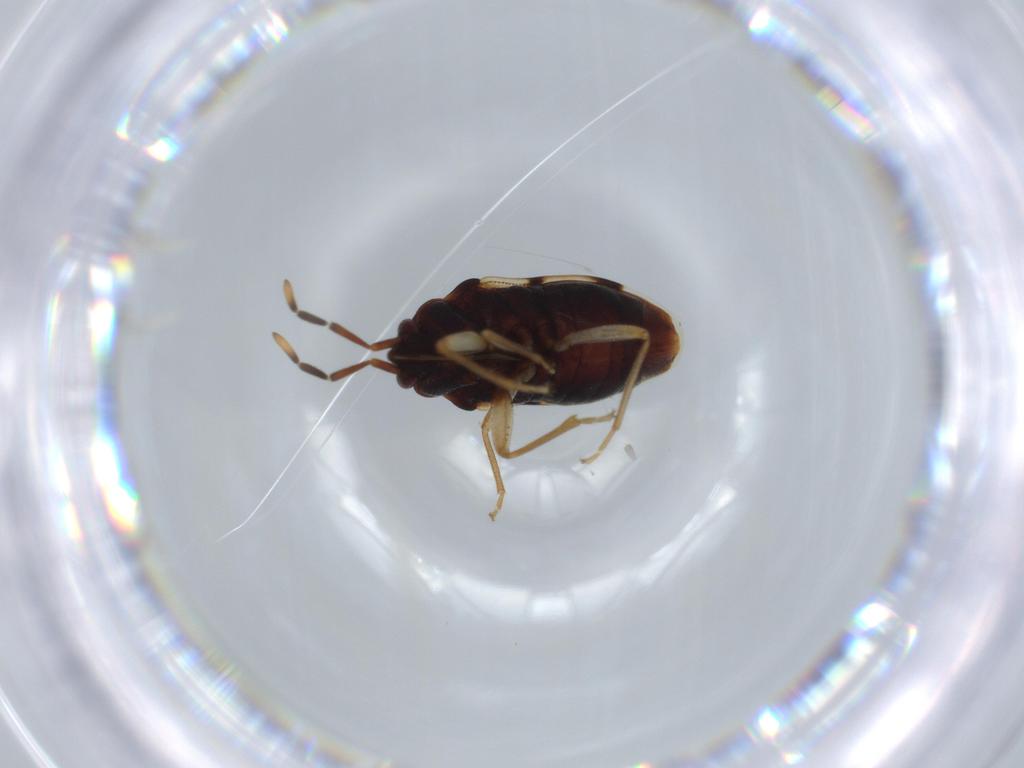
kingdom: Animalia
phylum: Arthropoda
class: Insecta
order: Hemiptera
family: Rhyparochromidae
